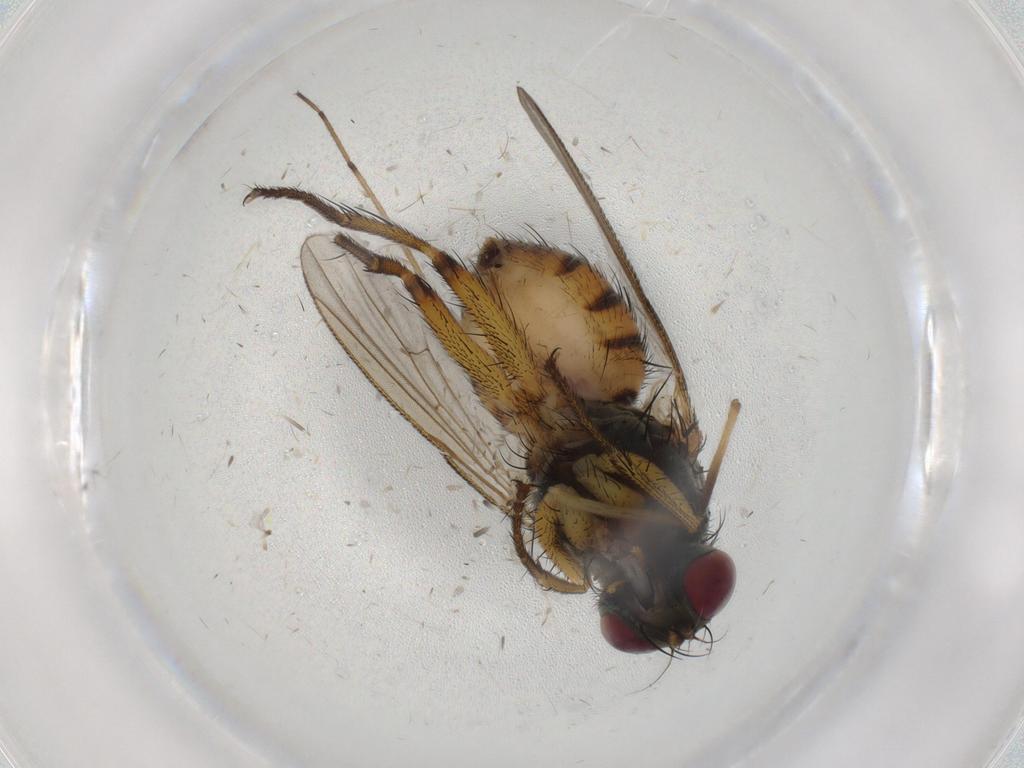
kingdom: Animalia
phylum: Arthropoda
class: Insecta
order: Diptera
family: Muscidae
